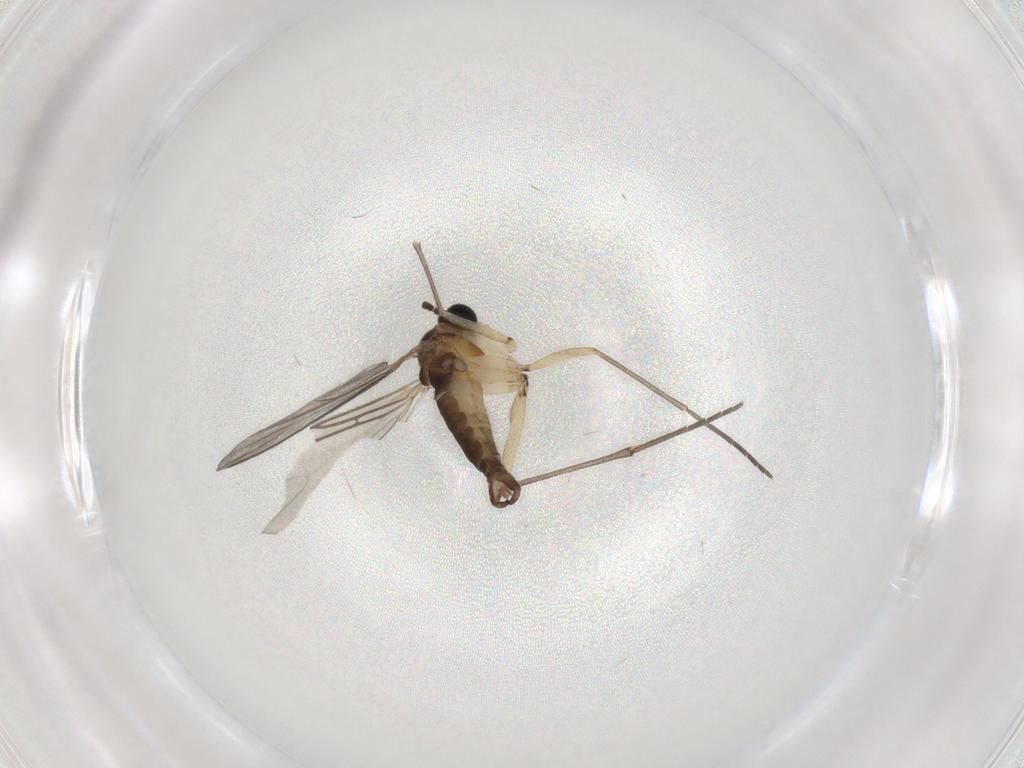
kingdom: Animalia
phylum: Arthropoda
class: Insecta
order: Diptera
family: Sciaridae
